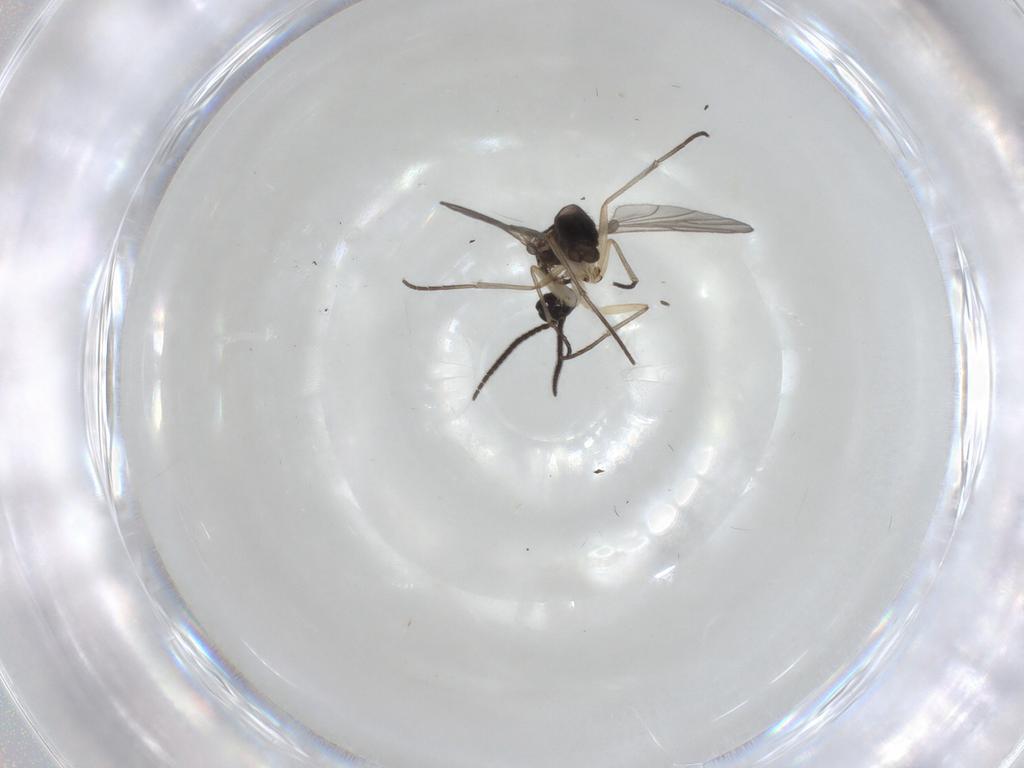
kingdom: Animalia
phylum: Arthropoda
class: Insecta
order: Diptera
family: Sciaridae
